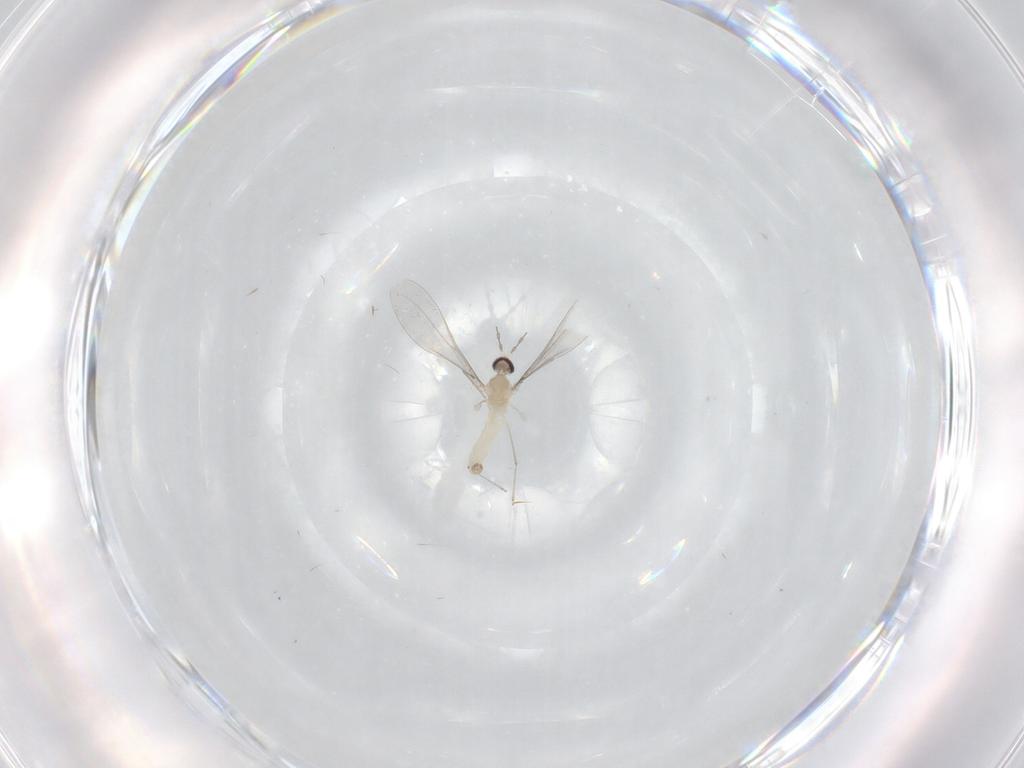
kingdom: Animalia
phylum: Arthropoda
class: Insecta
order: Diptera
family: Cecidomyiidae
